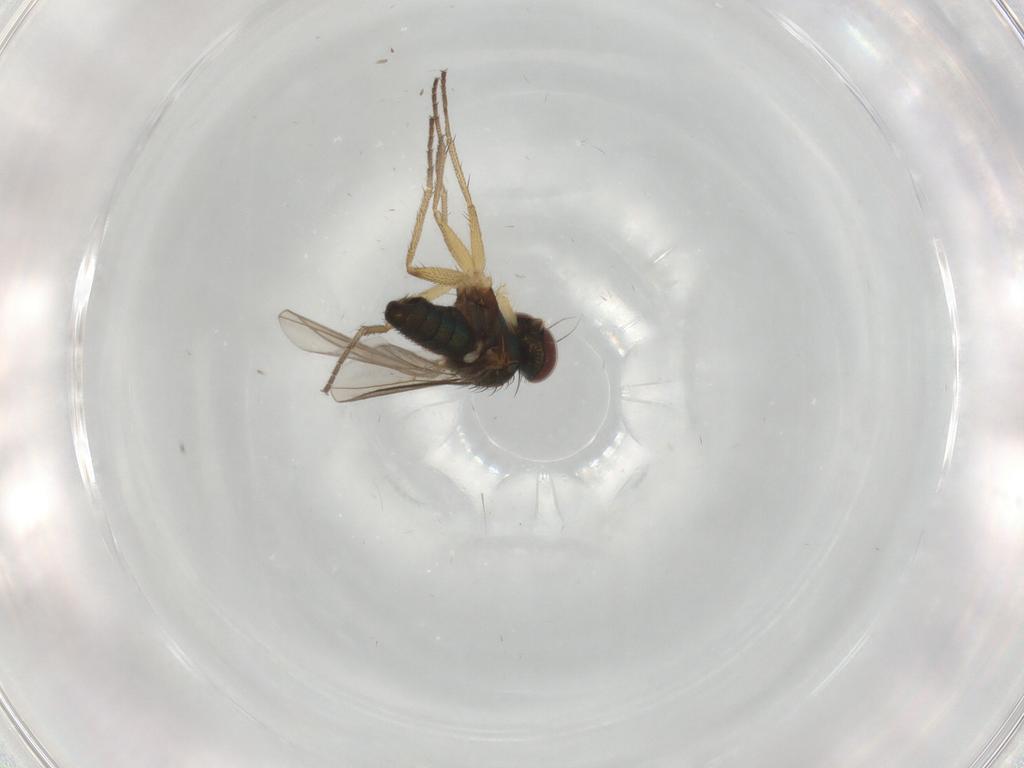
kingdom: Animalia
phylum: Arthropoda
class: Insecta
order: Diptera
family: Dolichopodidae
